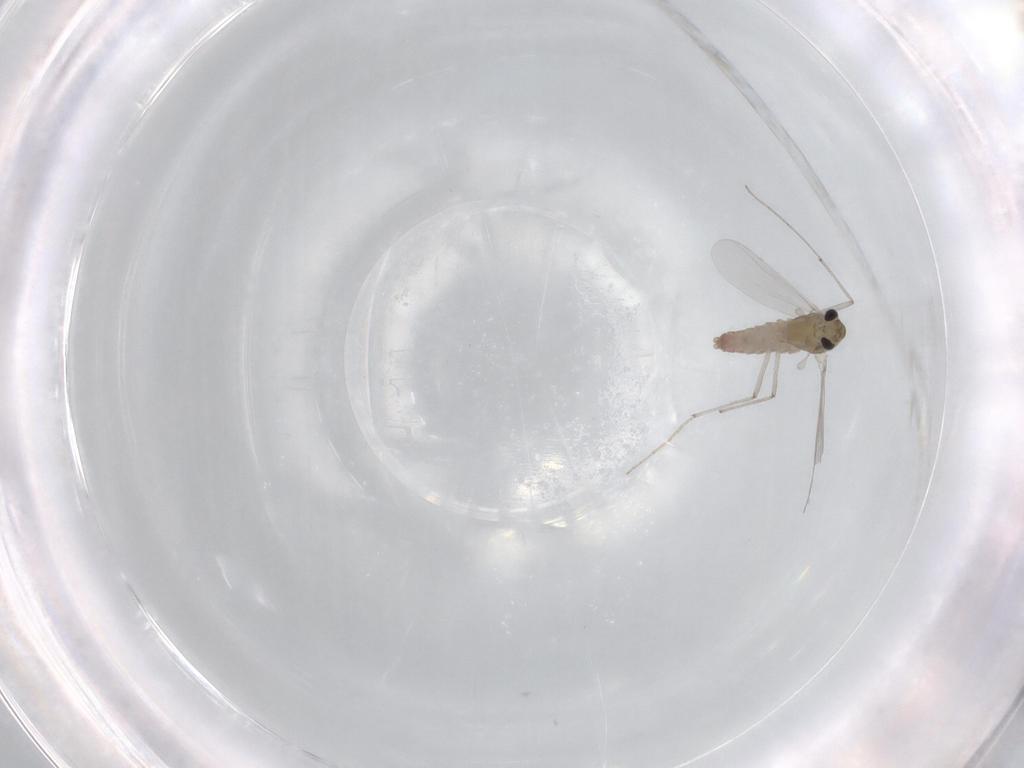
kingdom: Animalia
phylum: Arthropoda
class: Insecta
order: Diptera
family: Chironomidae
